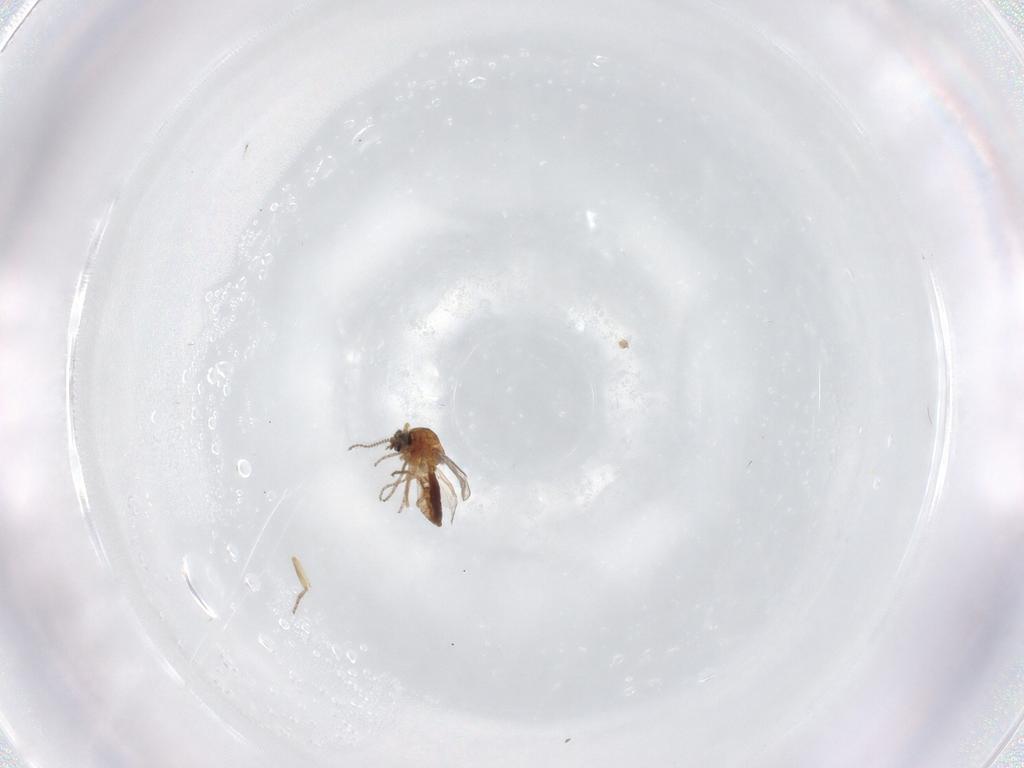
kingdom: Animalia
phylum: Arthropoda
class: Insecta
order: Diptera
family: Ceratopogonidae
